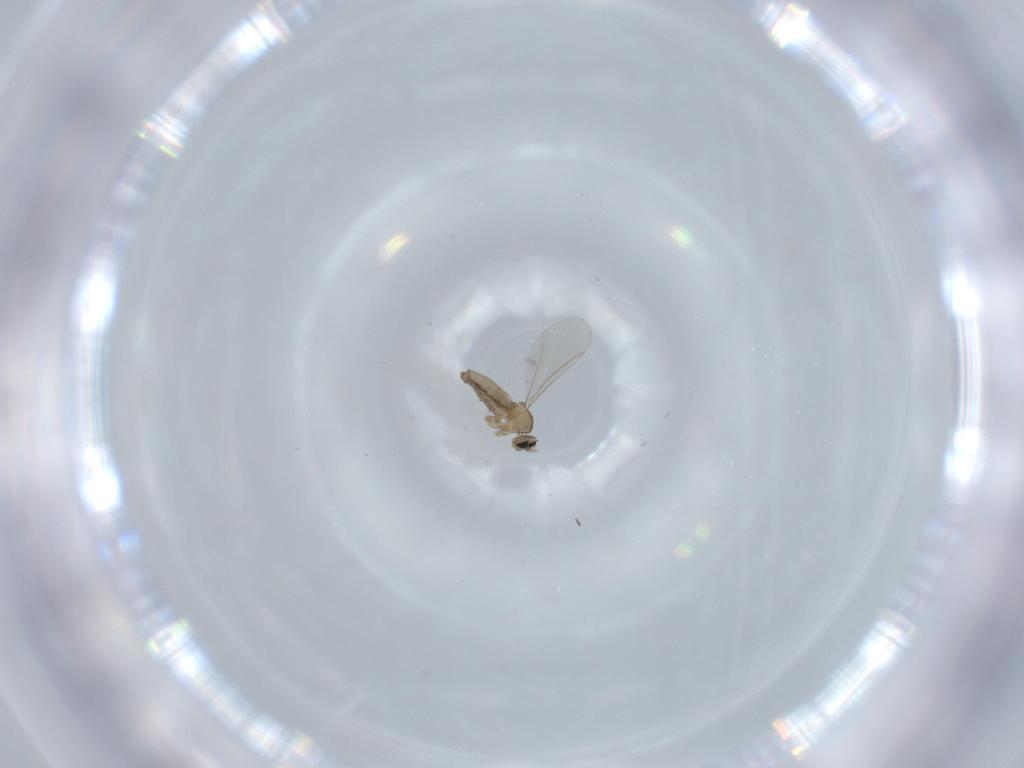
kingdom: Animalia
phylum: Arthropoda
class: Insecta
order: Diptera
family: Cecidomyiidae
